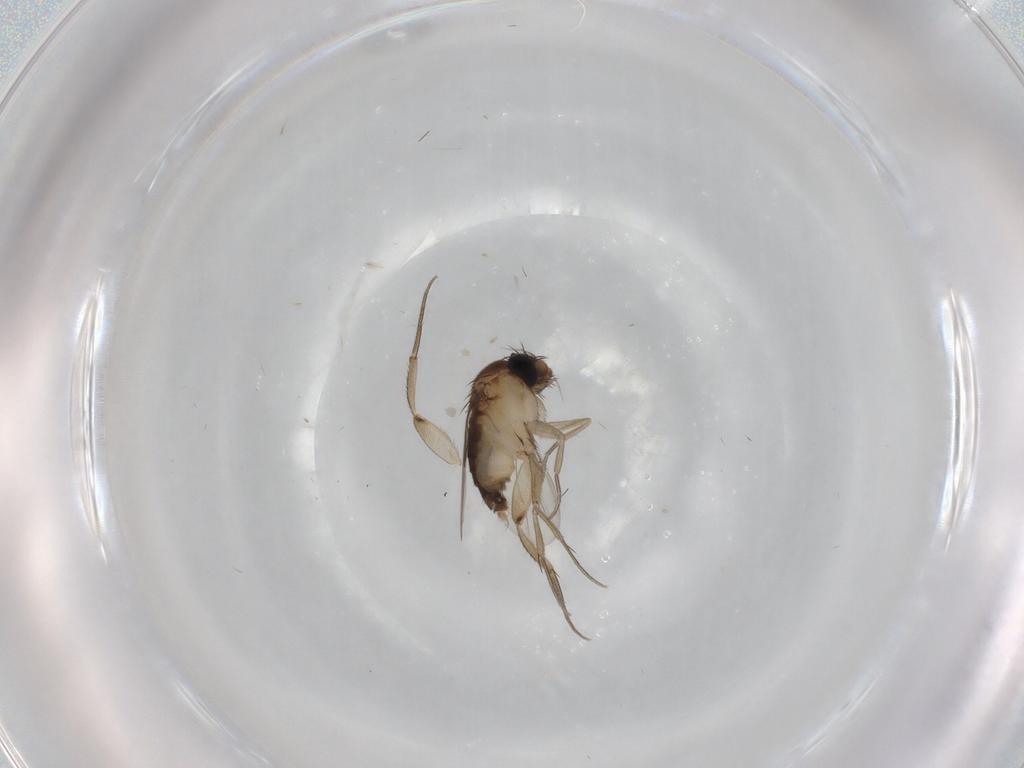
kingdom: Animalia
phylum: Arthropoda
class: Insecta
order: Diptera
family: Phoridae
